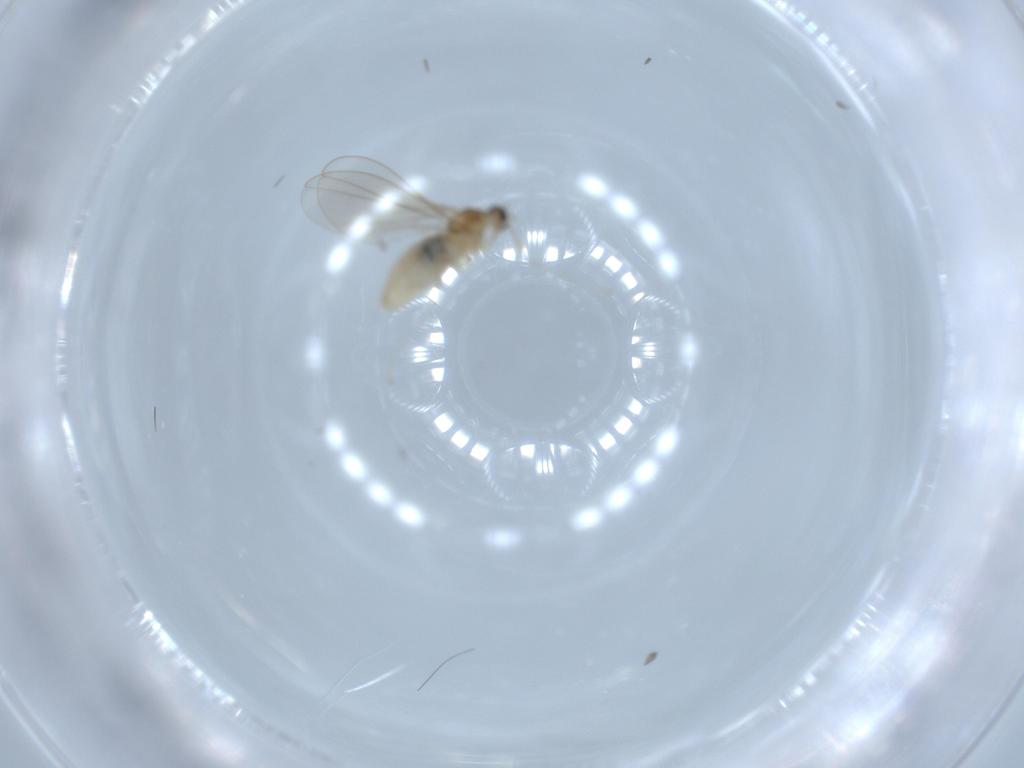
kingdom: Animalia
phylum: Arthropoda
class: Insecta
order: Diptera
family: Cecidomyiidae
